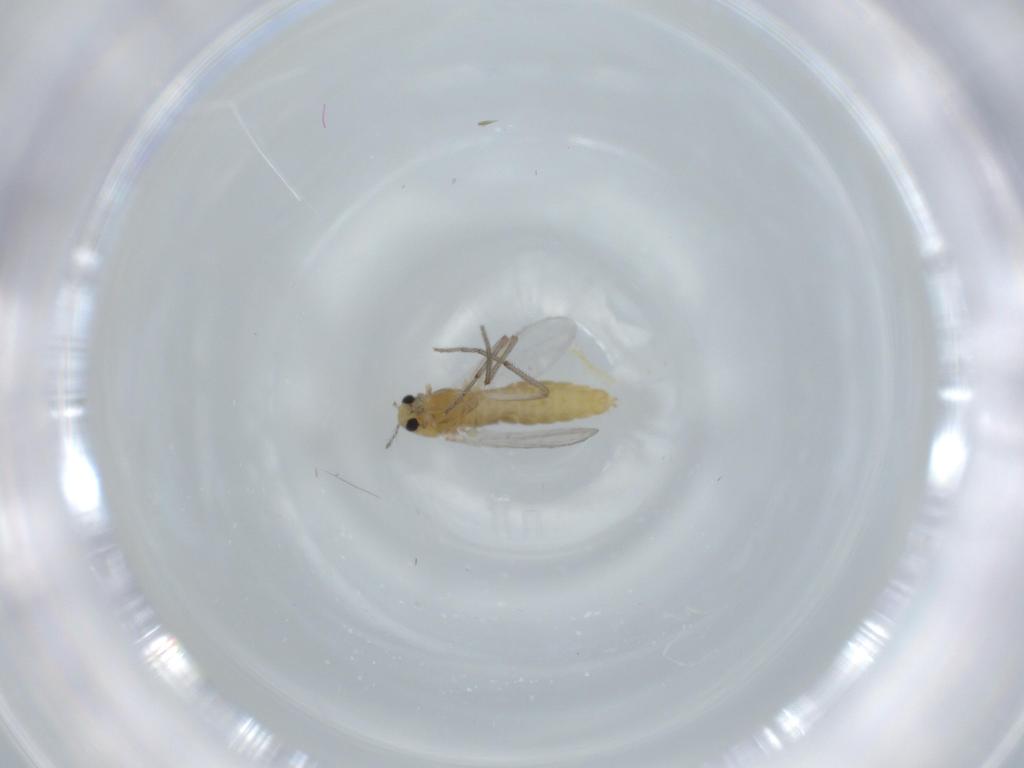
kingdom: Animalia
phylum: Arthropoda
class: Insecta
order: Diptera
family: Chironomidae
